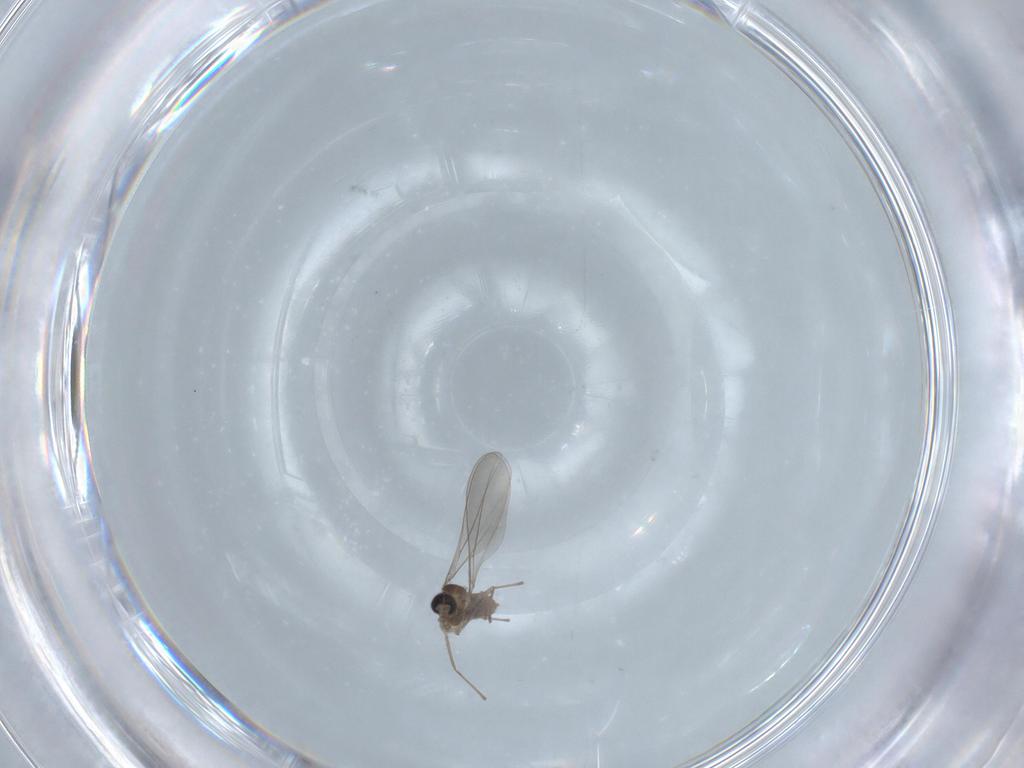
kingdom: Animalia
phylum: Arthropoda
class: Insecta
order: Diptera
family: Cecidomyiidae
